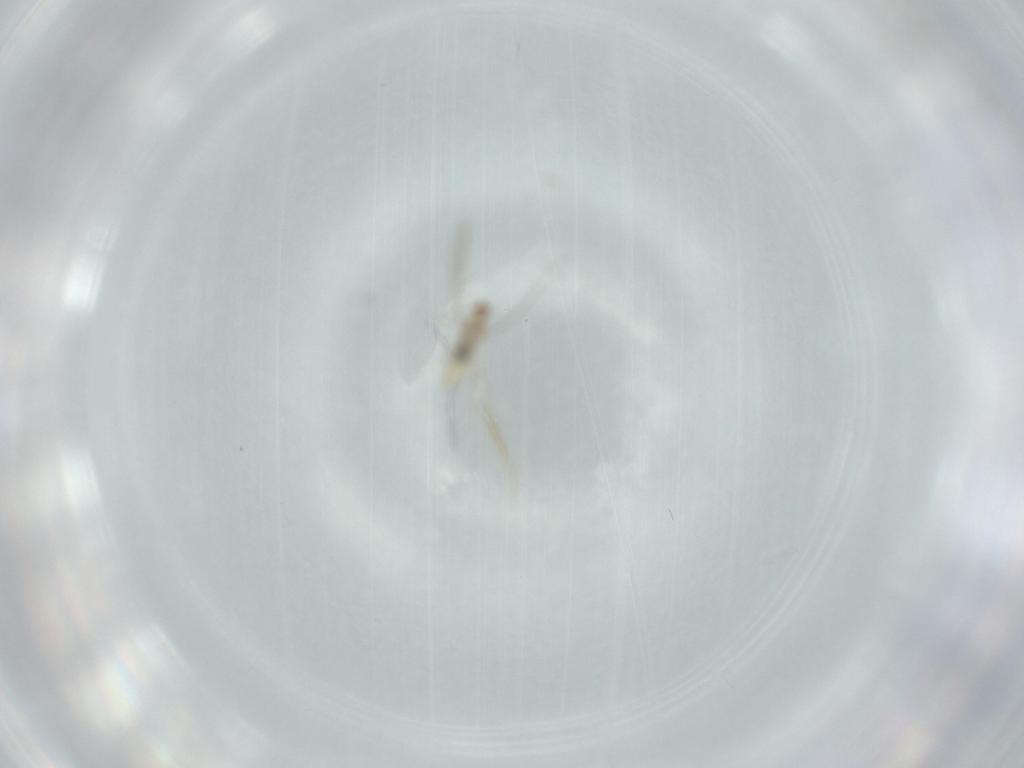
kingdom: Animalia
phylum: Arthropoda
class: Insecta
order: Diptera
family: Cecidomyiidae
